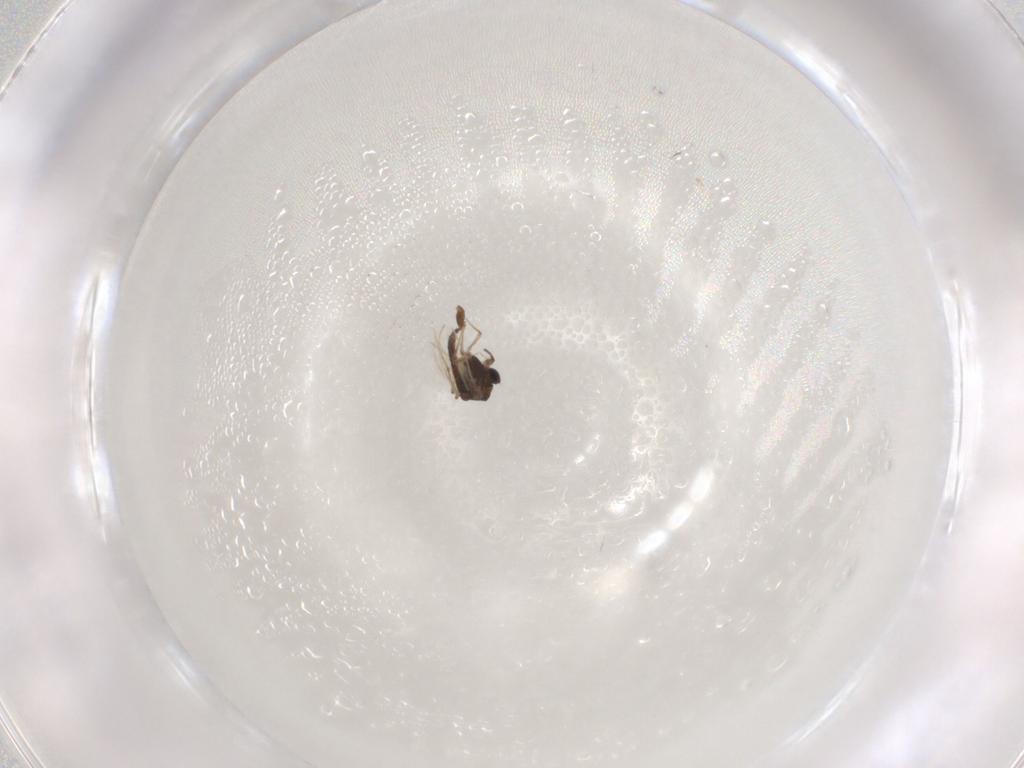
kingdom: Animalia
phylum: Arthropoda
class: Insecta
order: Diptera
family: Chironomidae
